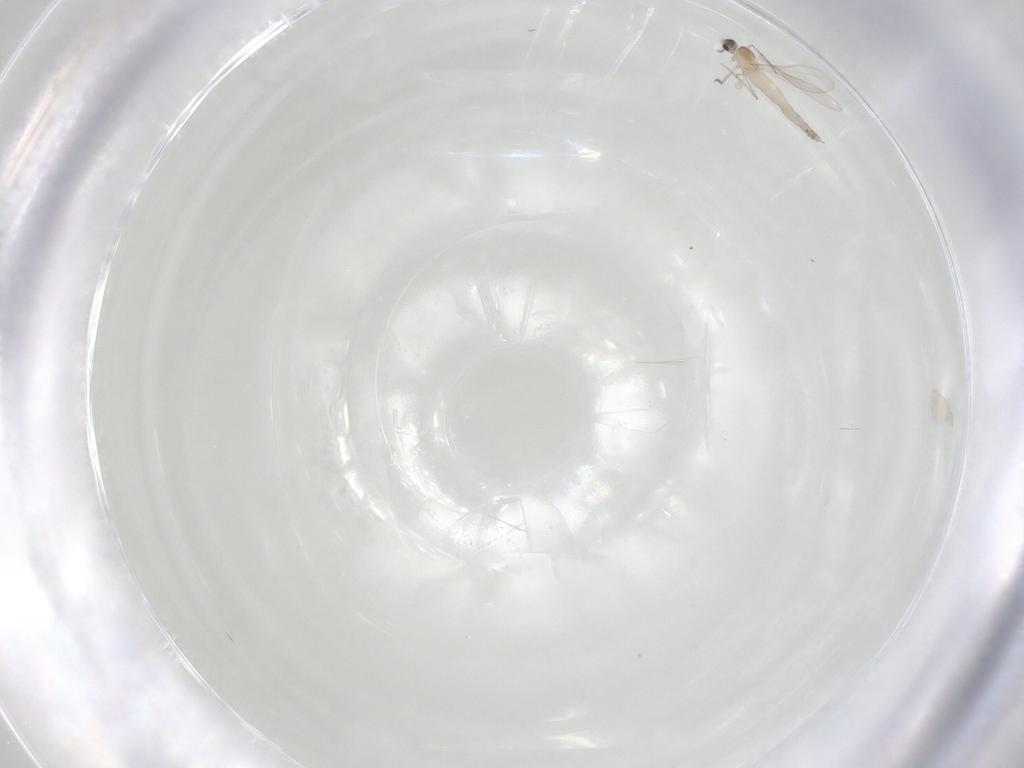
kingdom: Animalia
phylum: Arthropoda
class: Insecta
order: Diptera
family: Cecidomyiidae
